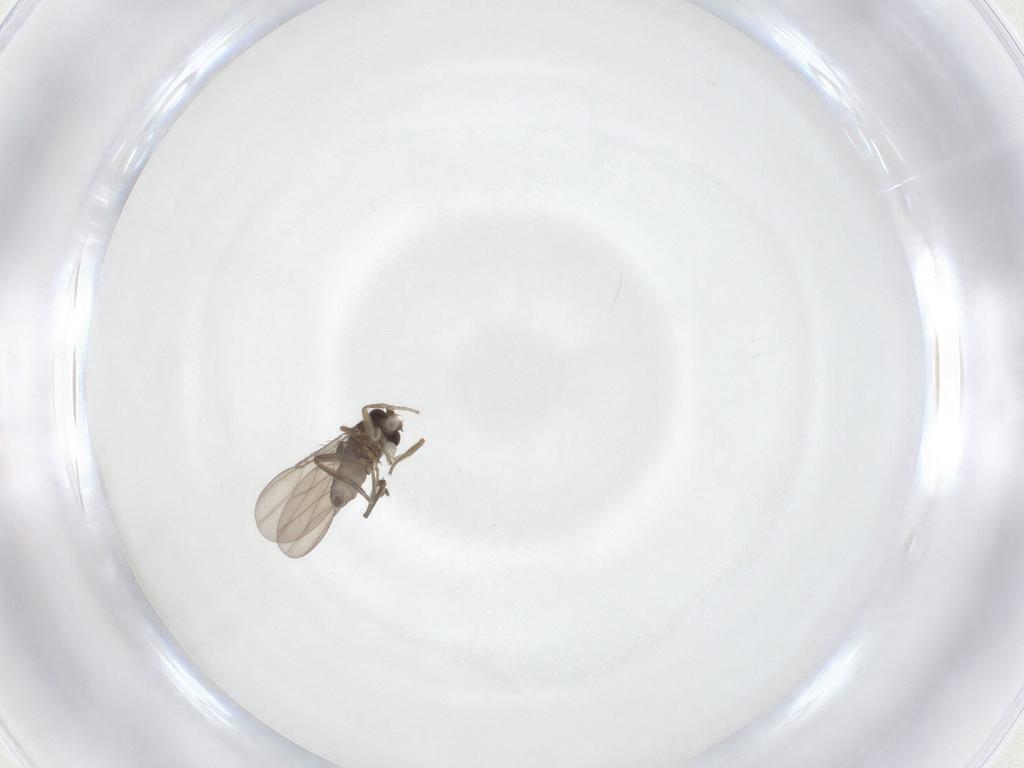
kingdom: Animalia
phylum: Arthropoda
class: Insecta
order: Diptera
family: Phoridae
